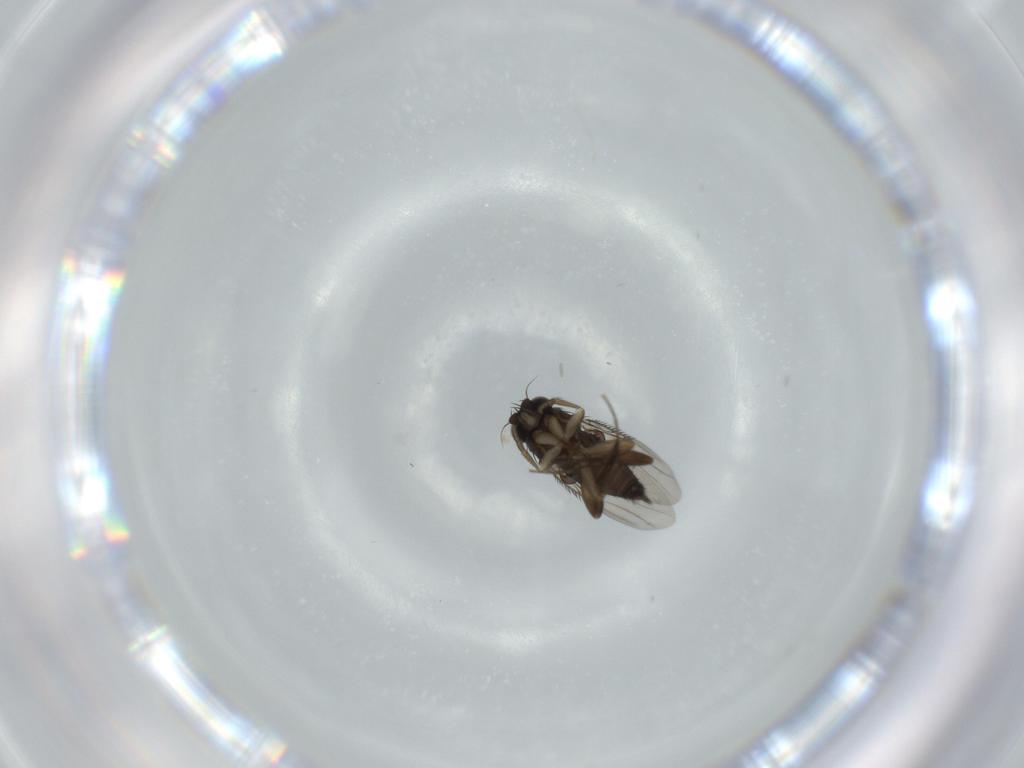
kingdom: Animalia
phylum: Arthropoda
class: Insecta
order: Diptera
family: Phoridae
